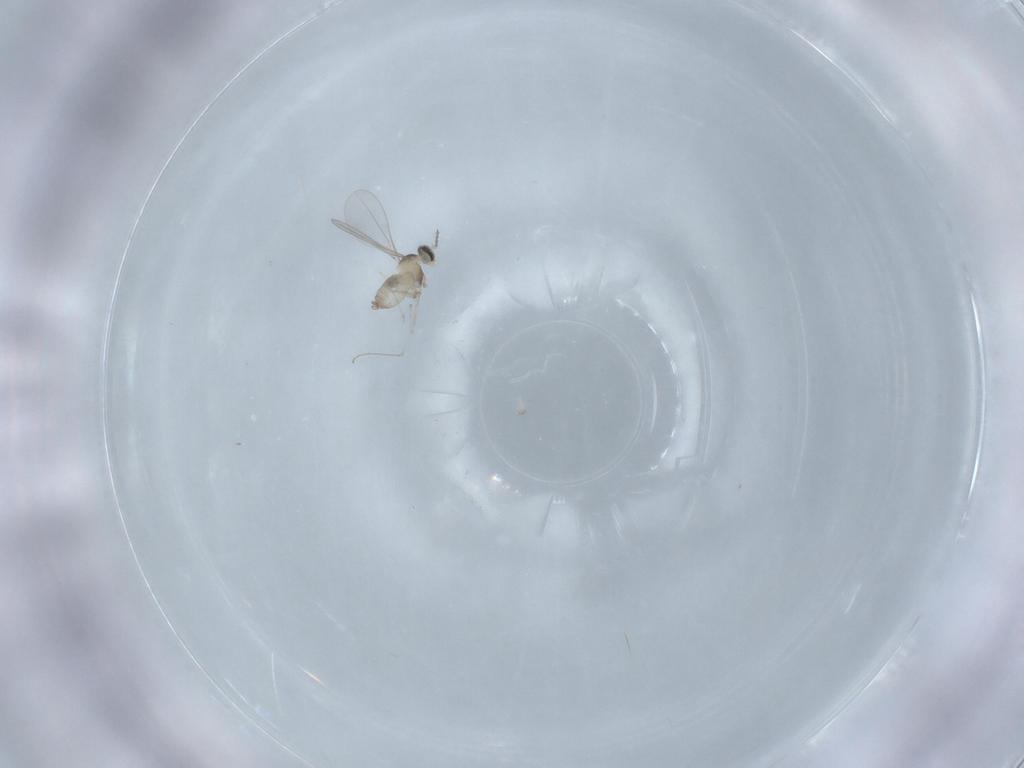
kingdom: Animalia
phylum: Arthropoda
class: Insecta
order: Diptera
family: Cecidomyiidae
